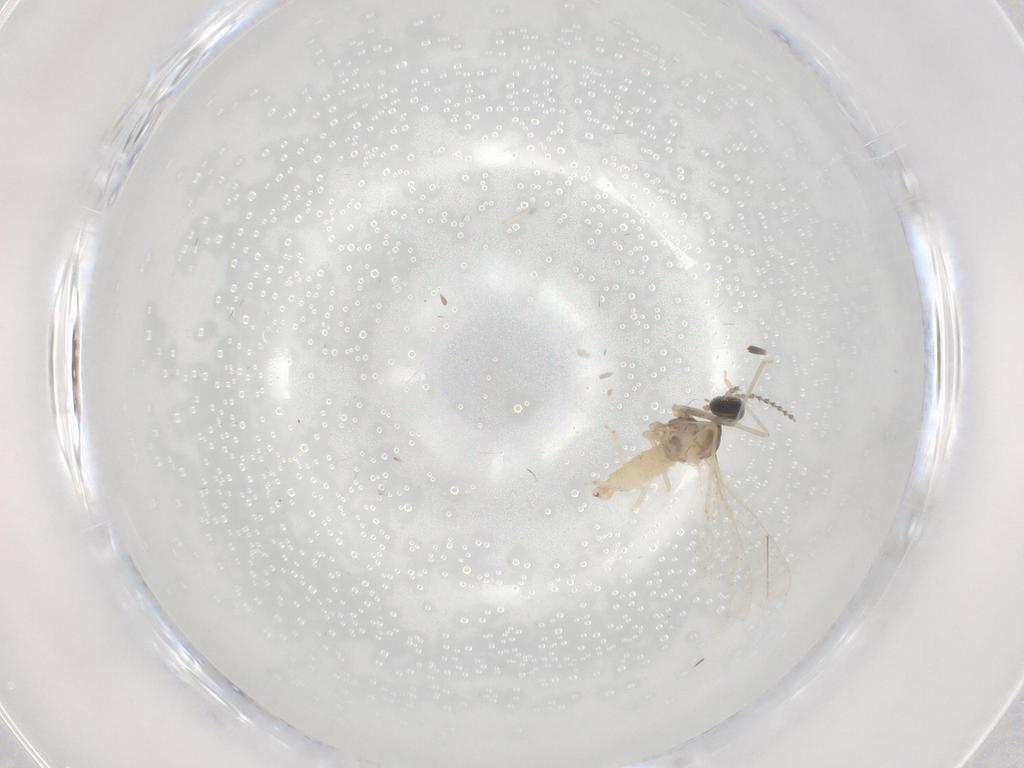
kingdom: Animalia
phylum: Arthropoda
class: Insecta
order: Diptera
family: Cecidomyiidae
